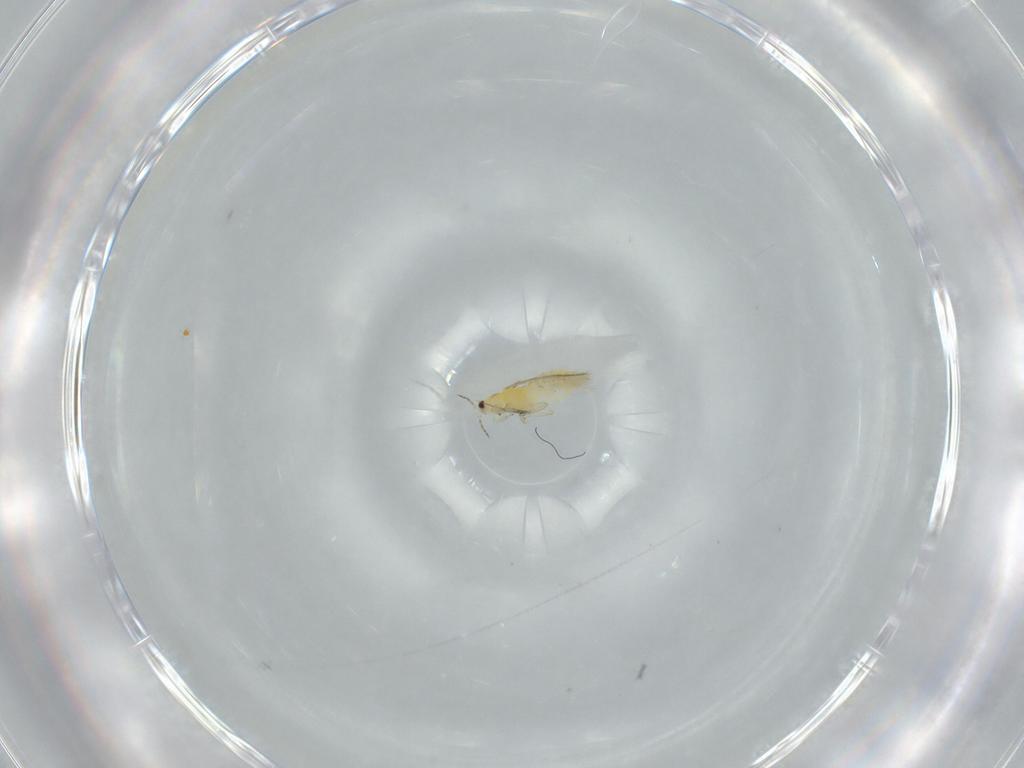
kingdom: Animalia
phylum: Arthropoda
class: Insecta
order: Thysanoptera
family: Thripidae
